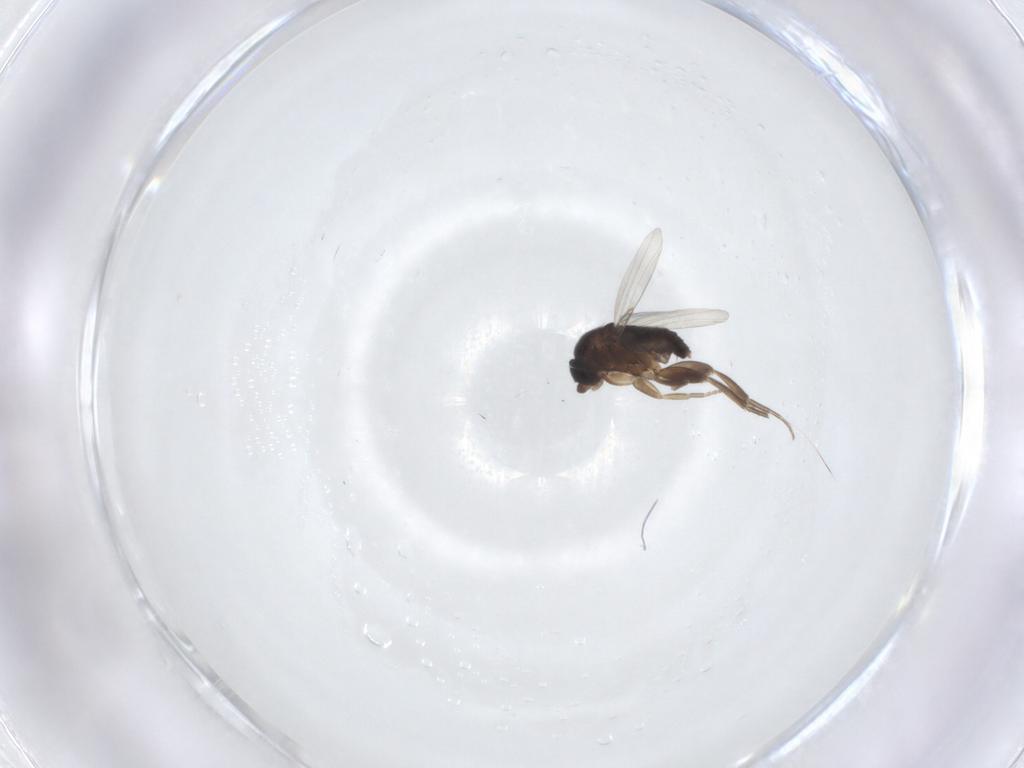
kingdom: Animalia
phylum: Arthropoda
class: Insecta
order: Diptera
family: Phoridae
